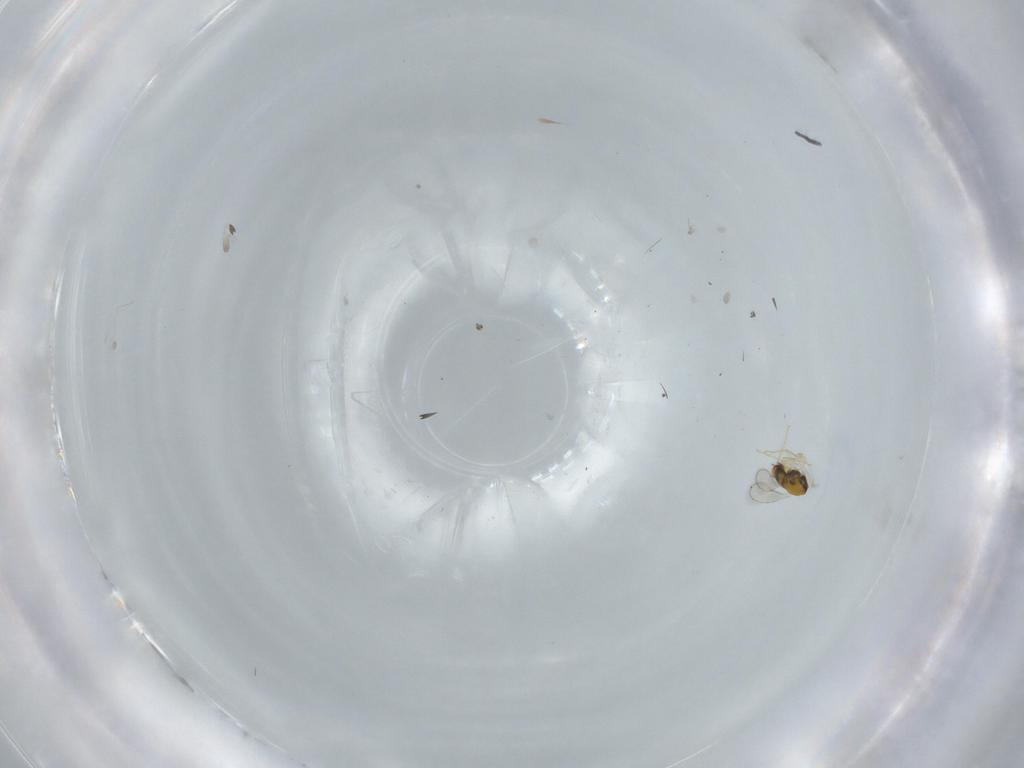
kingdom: Animalia
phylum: Arthropoda
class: Insecta
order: Hymenoptera
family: Aphelinidae
